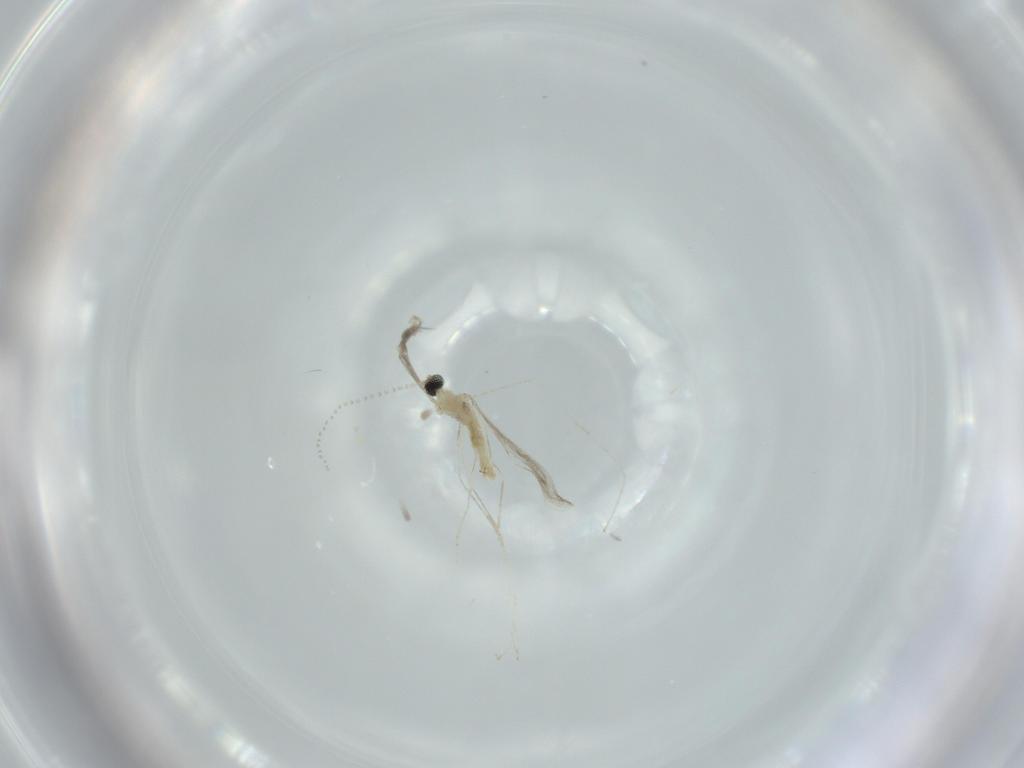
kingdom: Animalia
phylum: Arthropoda
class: Insecta
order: Diptera
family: Cecidomyiidae
